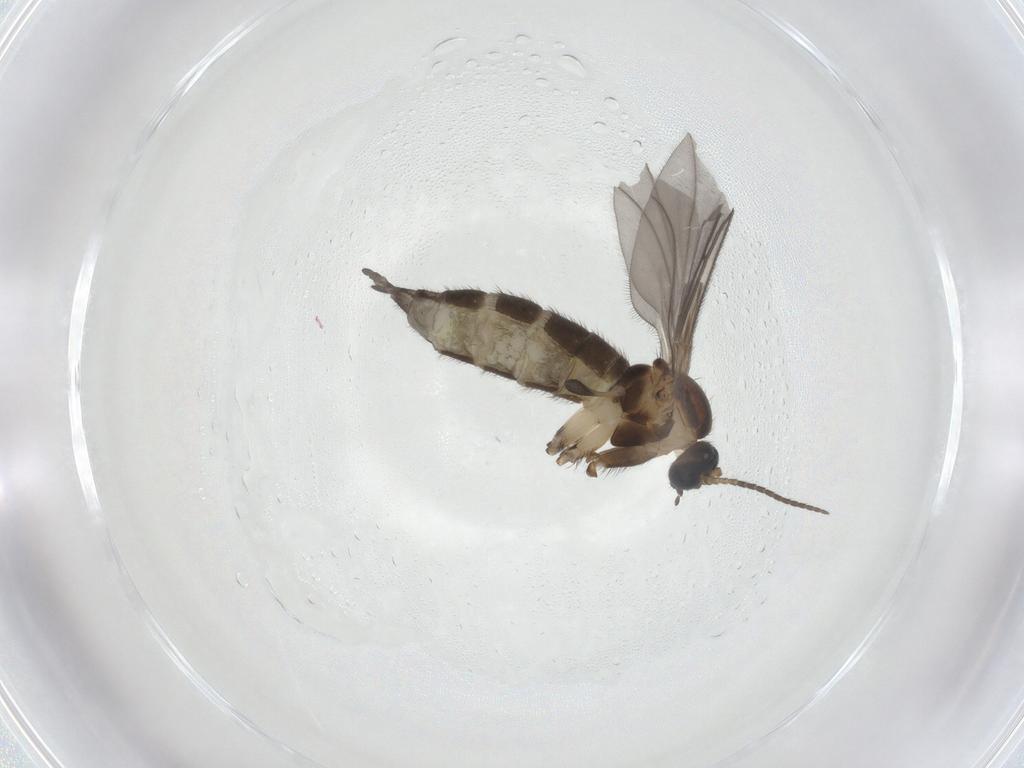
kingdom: Animalia
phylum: Arthropoda
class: Insecta
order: Diptera
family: Sciaridae
